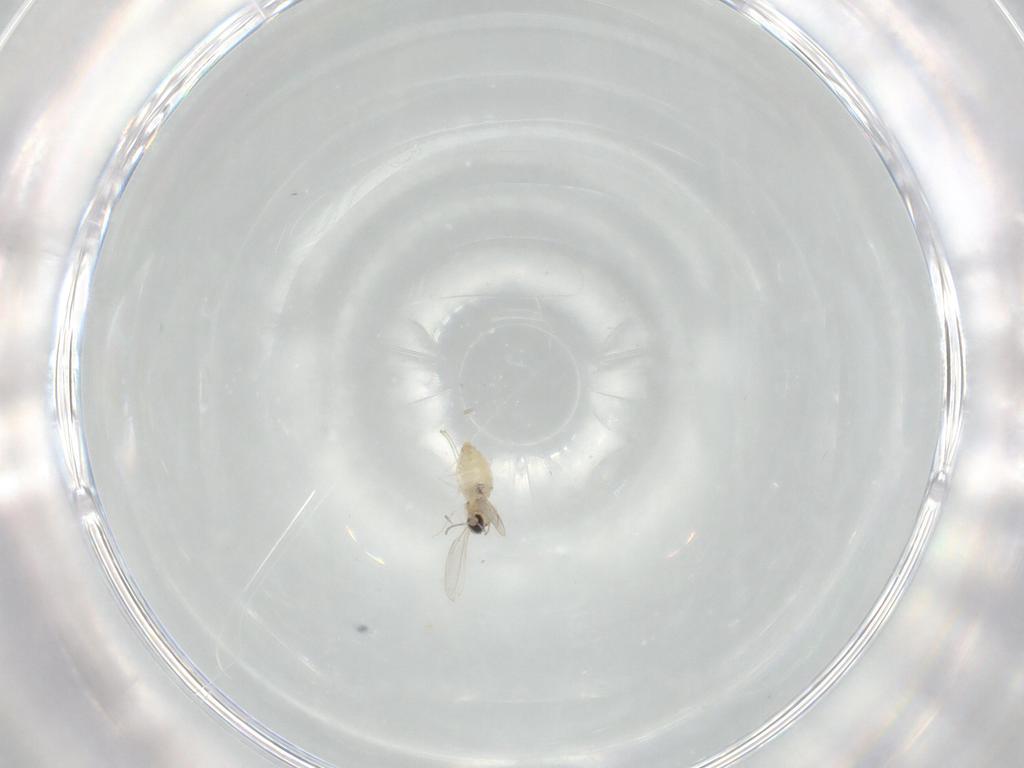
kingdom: Animalia
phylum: Arthropoda
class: Insecta
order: Diptera
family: Cecidomyiidae
